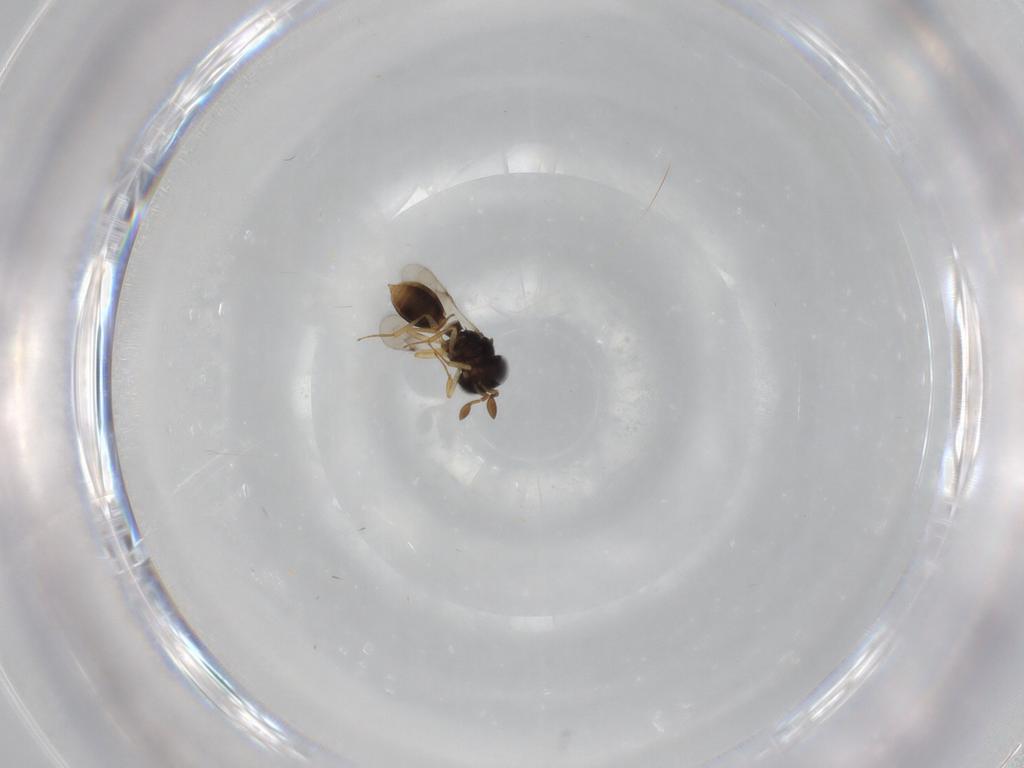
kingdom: Animalia
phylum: Arthropoda
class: Insecta
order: Hymenoptera
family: Scelionidae
